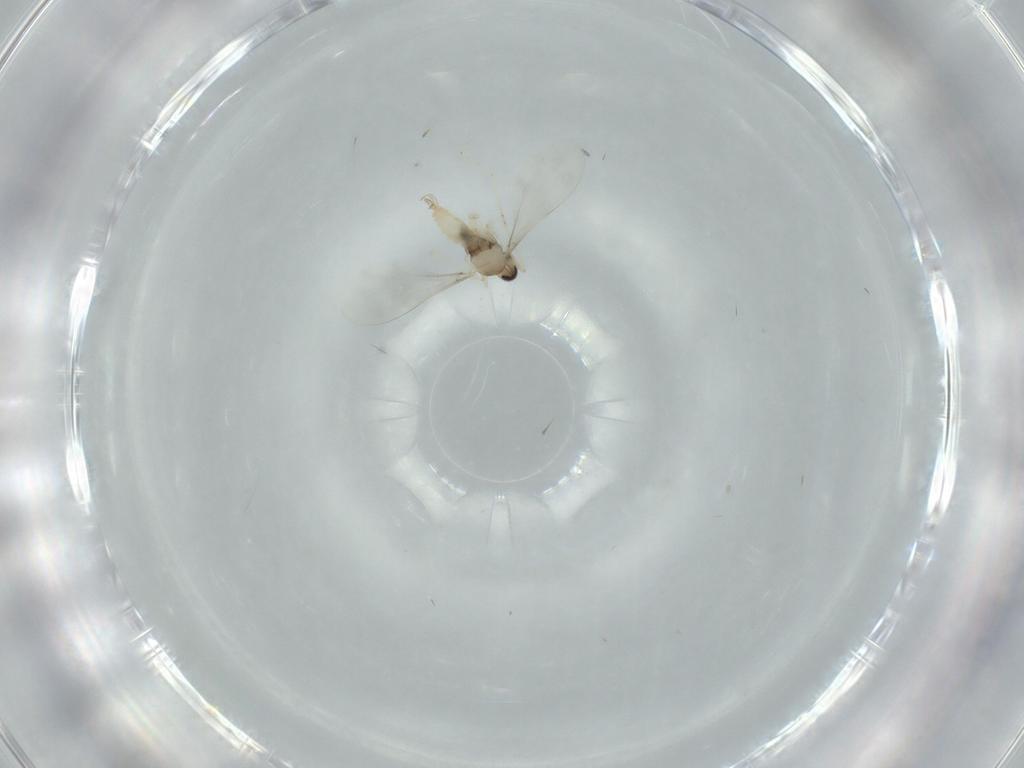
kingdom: Animalia
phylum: Arthropoda
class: Insecta
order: Diptera
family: Cecidomyiidae
